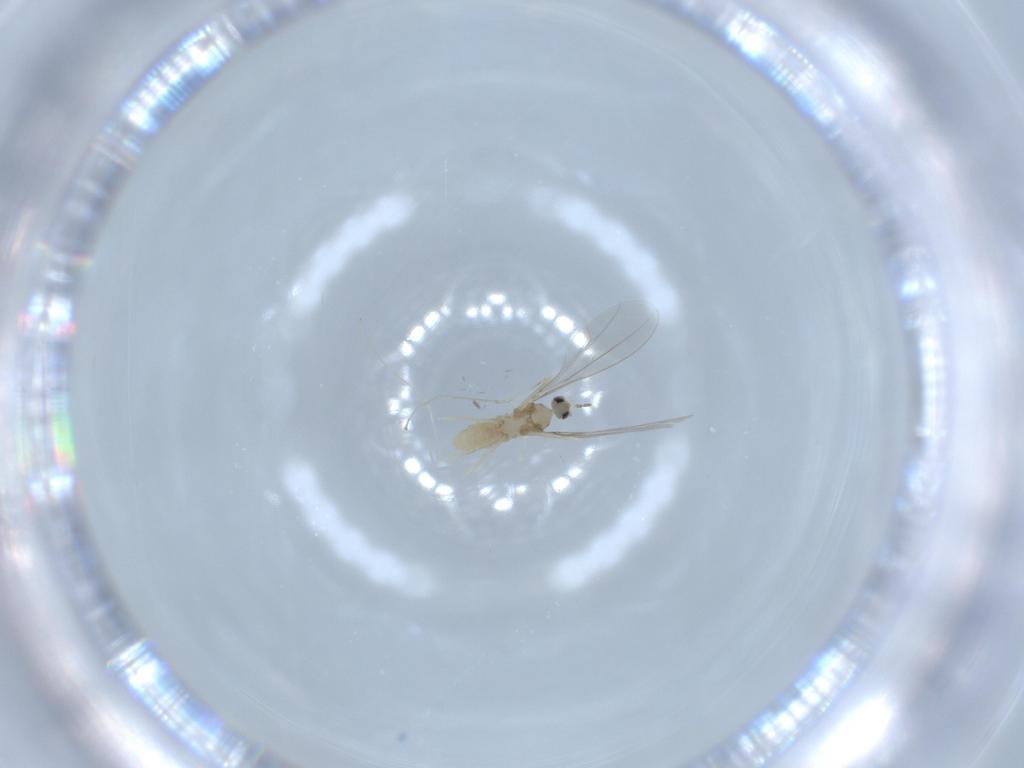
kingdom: Animalia
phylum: Arthropoda
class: Insecta
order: Diptera
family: Cecidomyiidae
